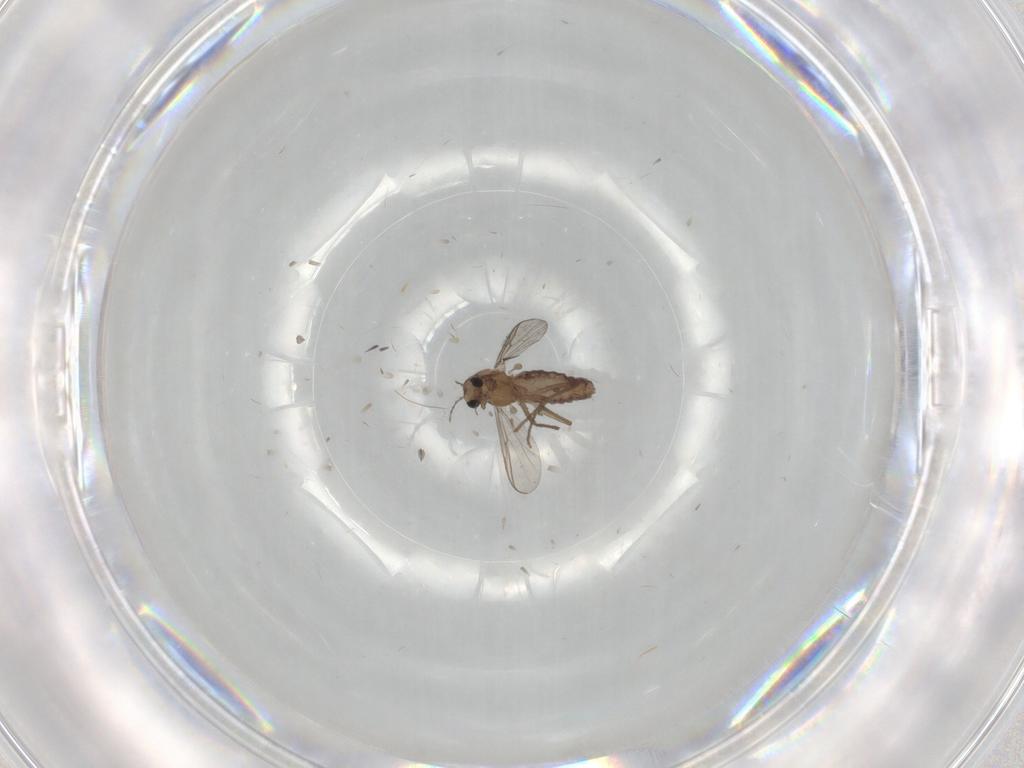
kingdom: Animalia
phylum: Arthropoda
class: Insecta
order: Diptera
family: Chironomidae
